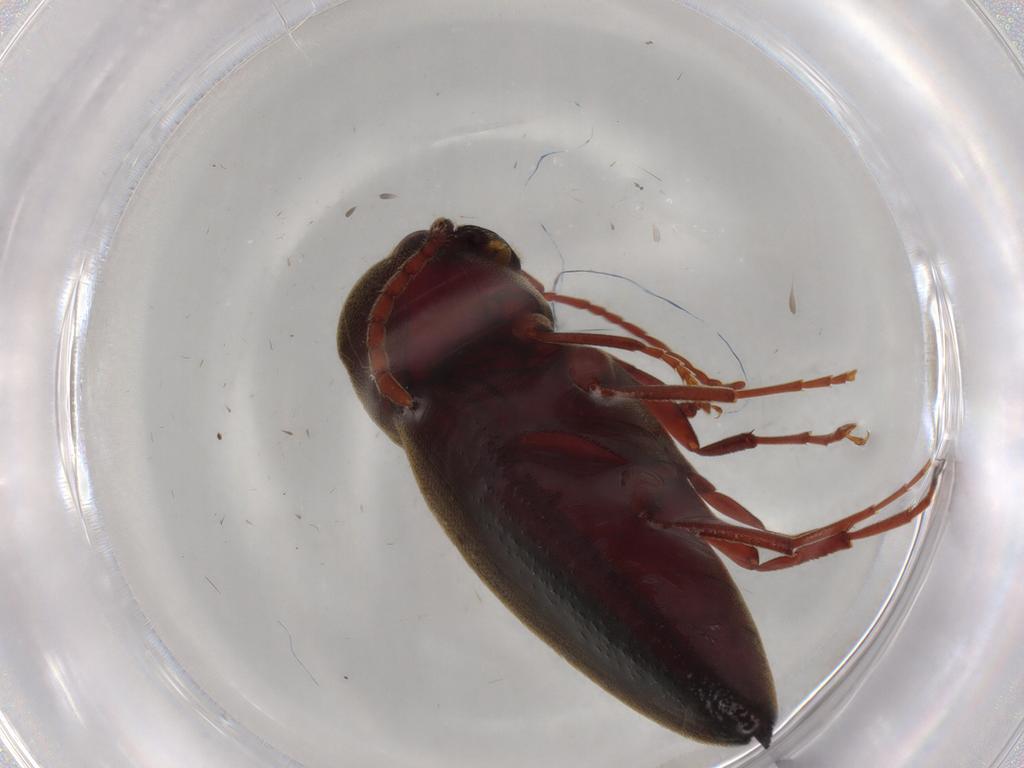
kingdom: Animalia
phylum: Arthropoda
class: Insecta
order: Coleoptera
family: Eucnemidae
